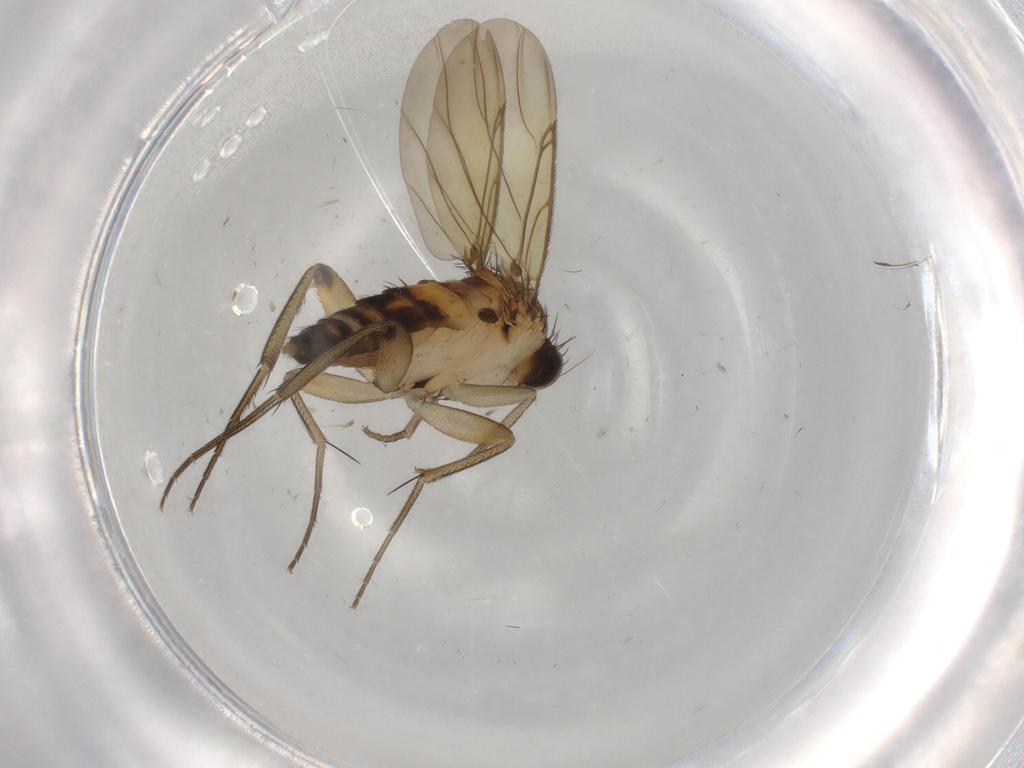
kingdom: Animalia
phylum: Arthropoda
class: Insecta
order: Diptera
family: Phoridae
